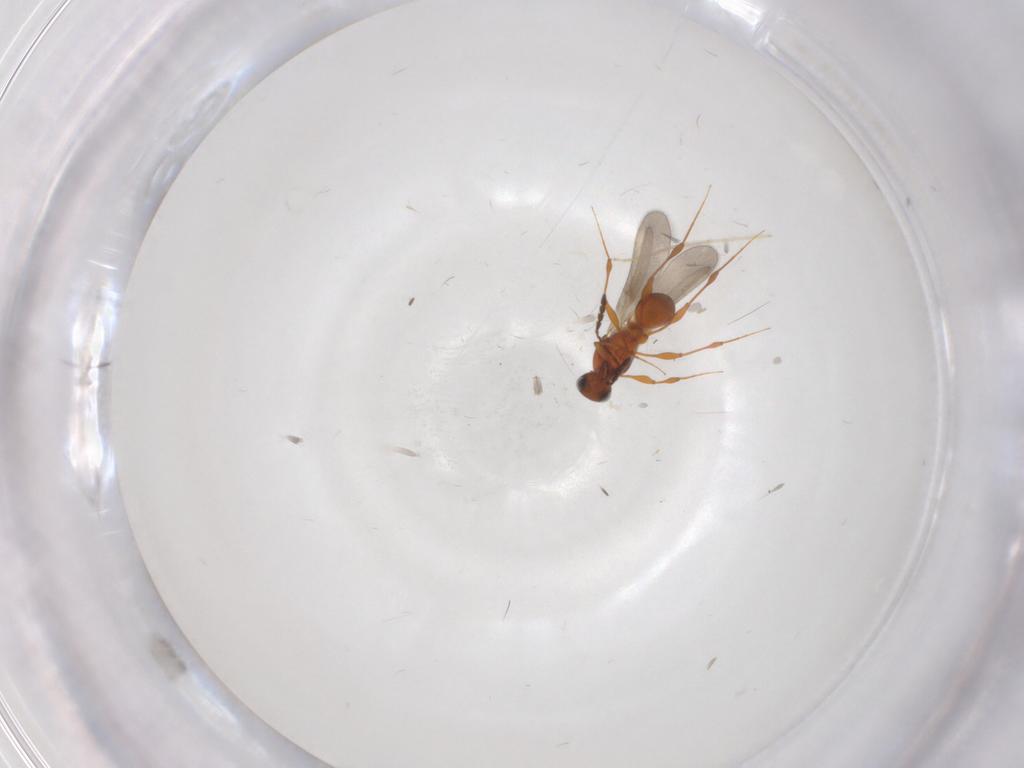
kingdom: Animalia
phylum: Arthropoda
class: Insecta
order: Hymenoptera
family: Platygastridae
